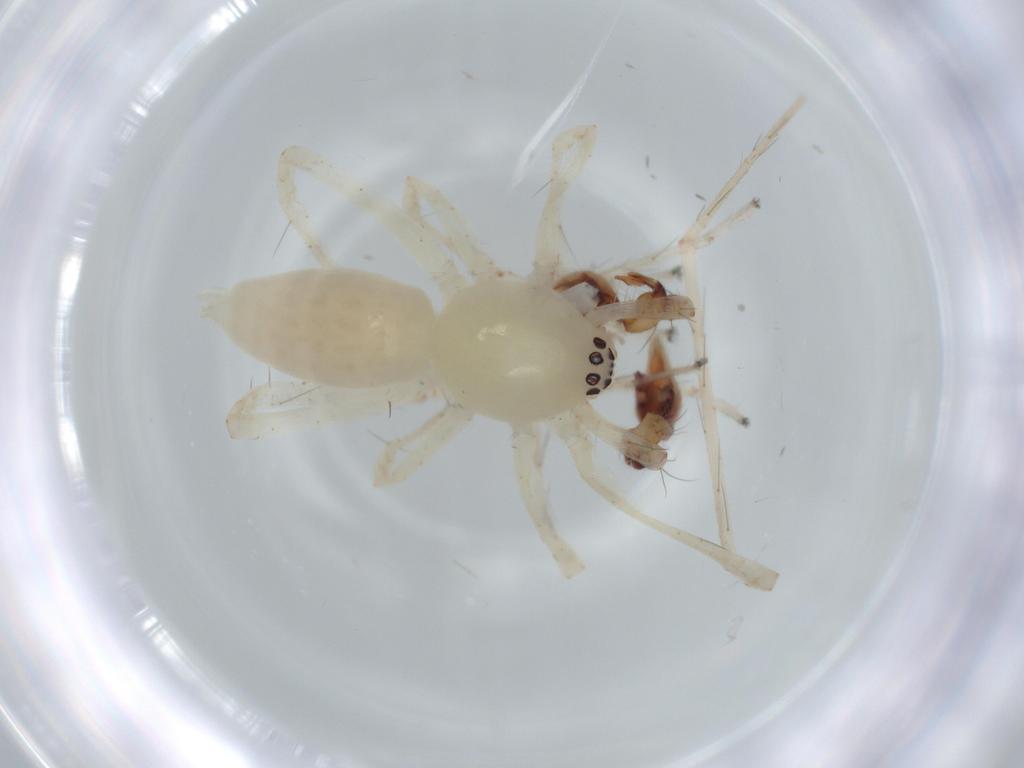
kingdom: Animalia
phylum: Arthropoda
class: Arachnida
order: Araneae
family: Anyphaenidae
